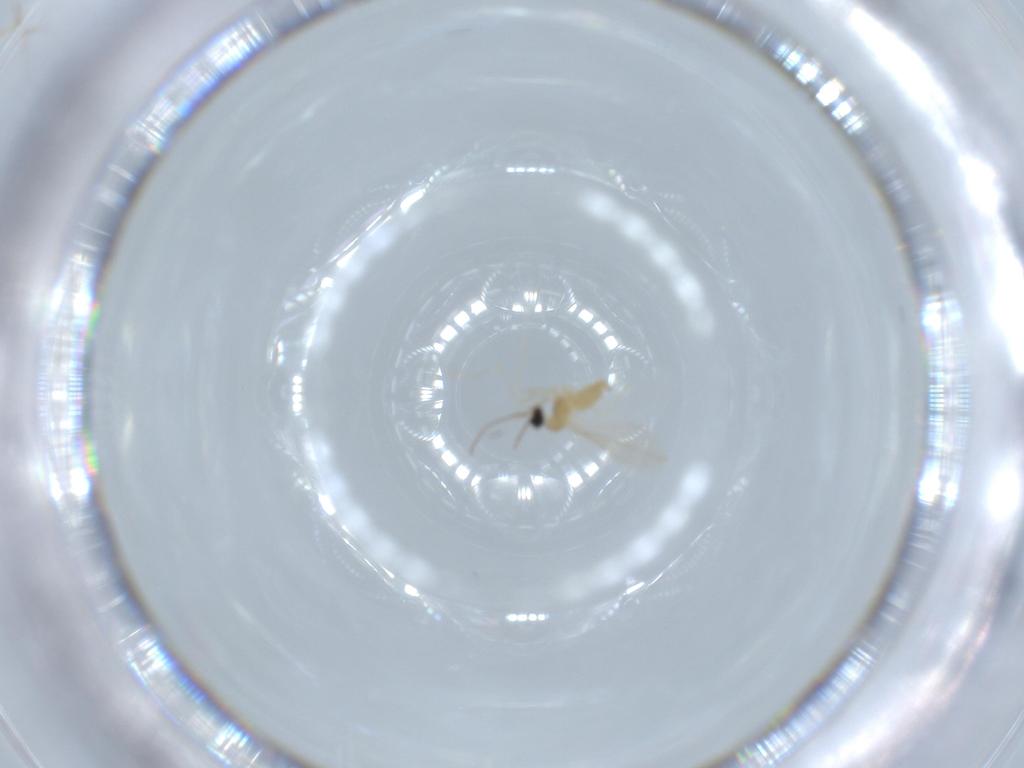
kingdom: Animalia
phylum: Arthropoda
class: Insecta
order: Diptera
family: Cecidomyiidae
